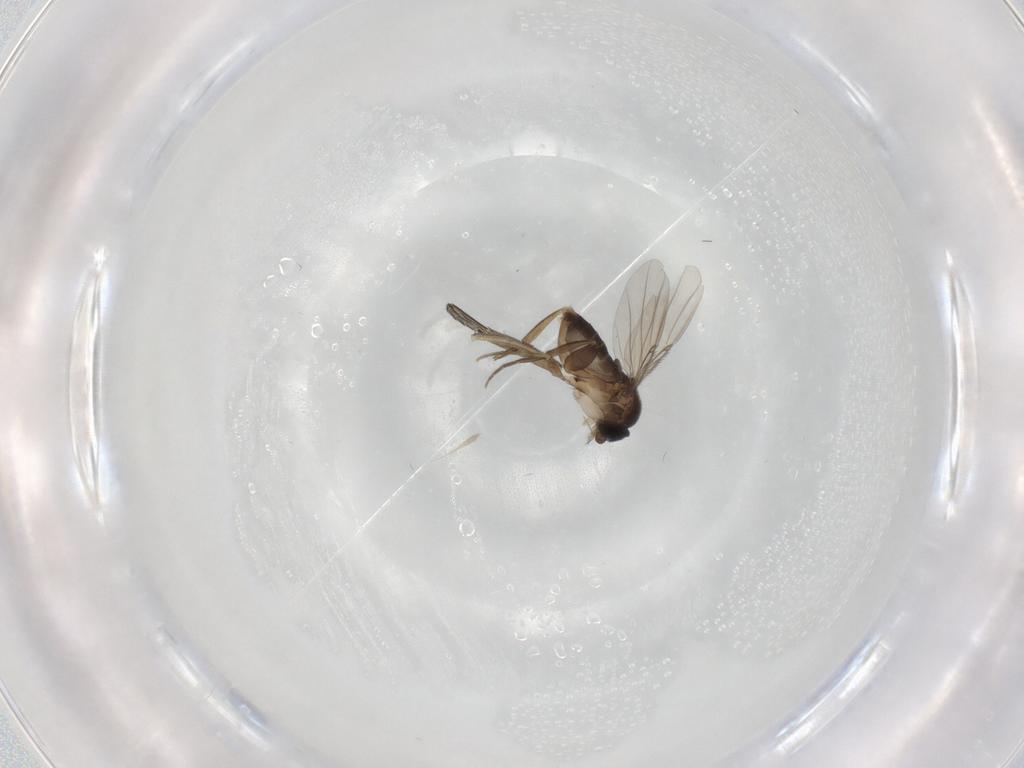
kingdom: Animalia
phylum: Arthropoda
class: Insecta
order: Diptera
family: Phoridae
